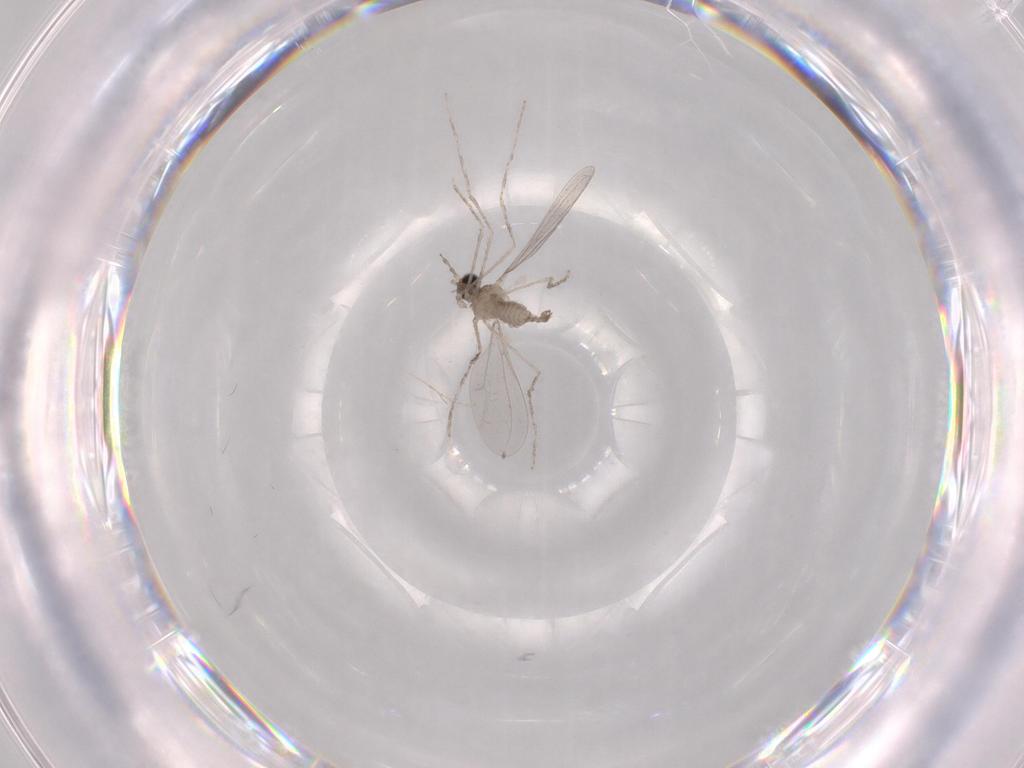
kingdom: Animalia
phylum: Arthropoda
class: Insecta
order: Diptera
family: Cecidomyiidae
